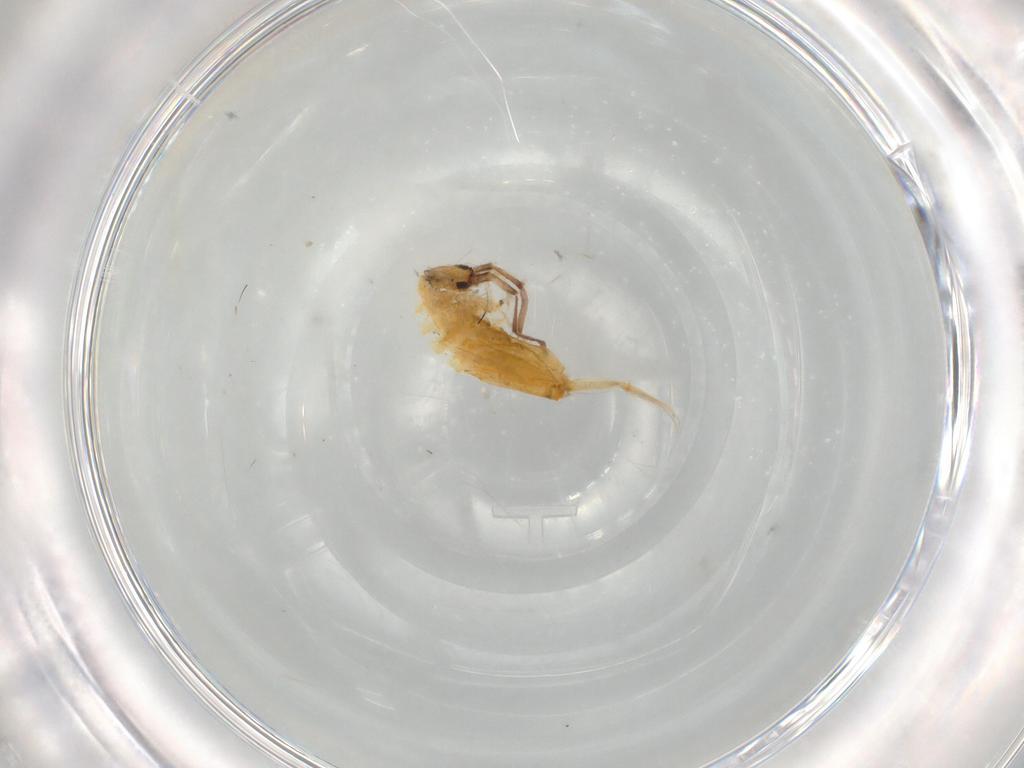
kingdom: Animalia
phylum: Arthropoda
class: Collembola
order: Entomobryomorpha
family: Entomobryidae
